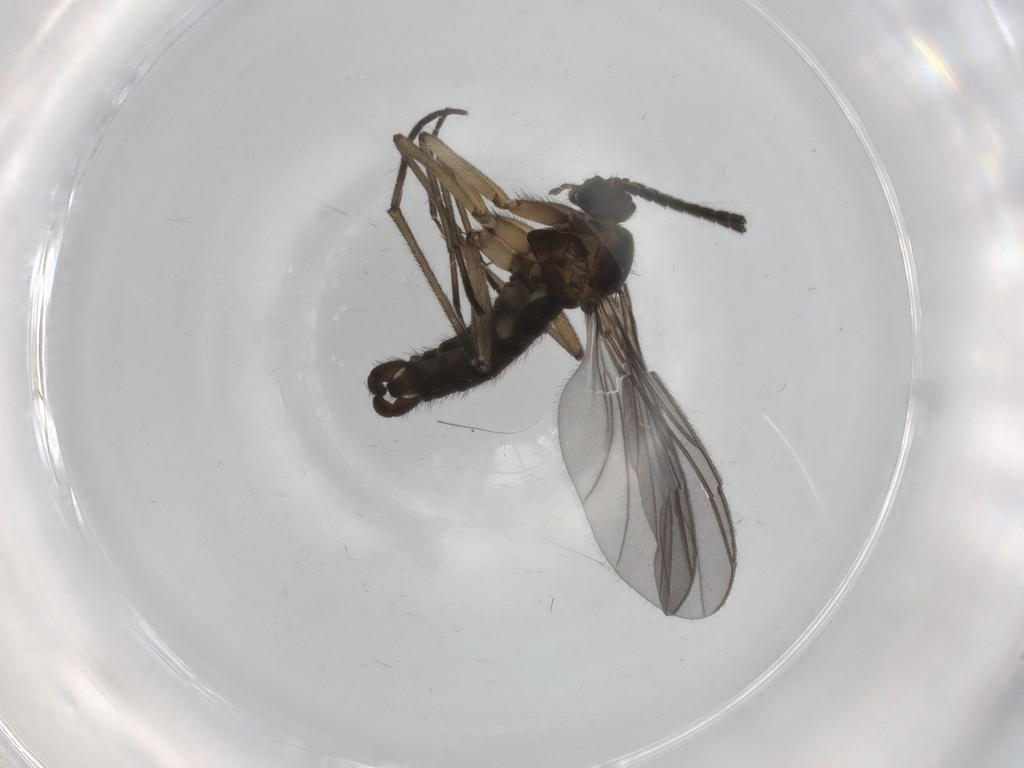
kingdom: Animalia
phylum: Arthropoda
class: Insecta
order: Diptera
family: Sciaridae
